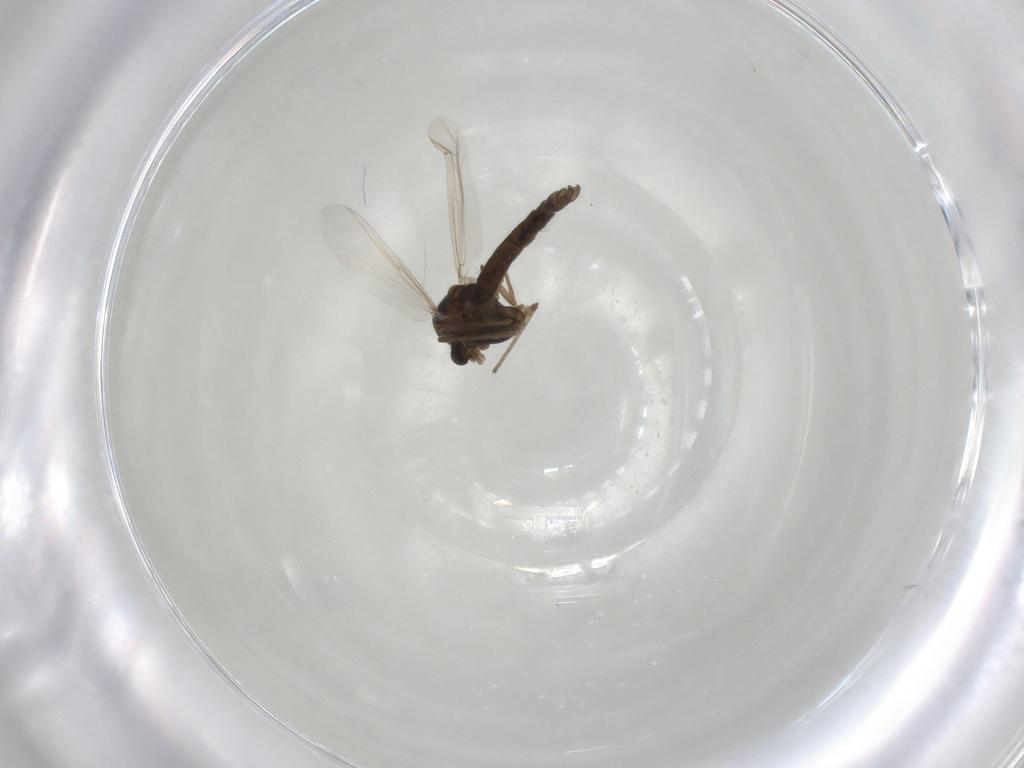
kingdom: Animalia
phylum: Arthropoda
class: Insecta
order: Diptera
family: Chironomidae
